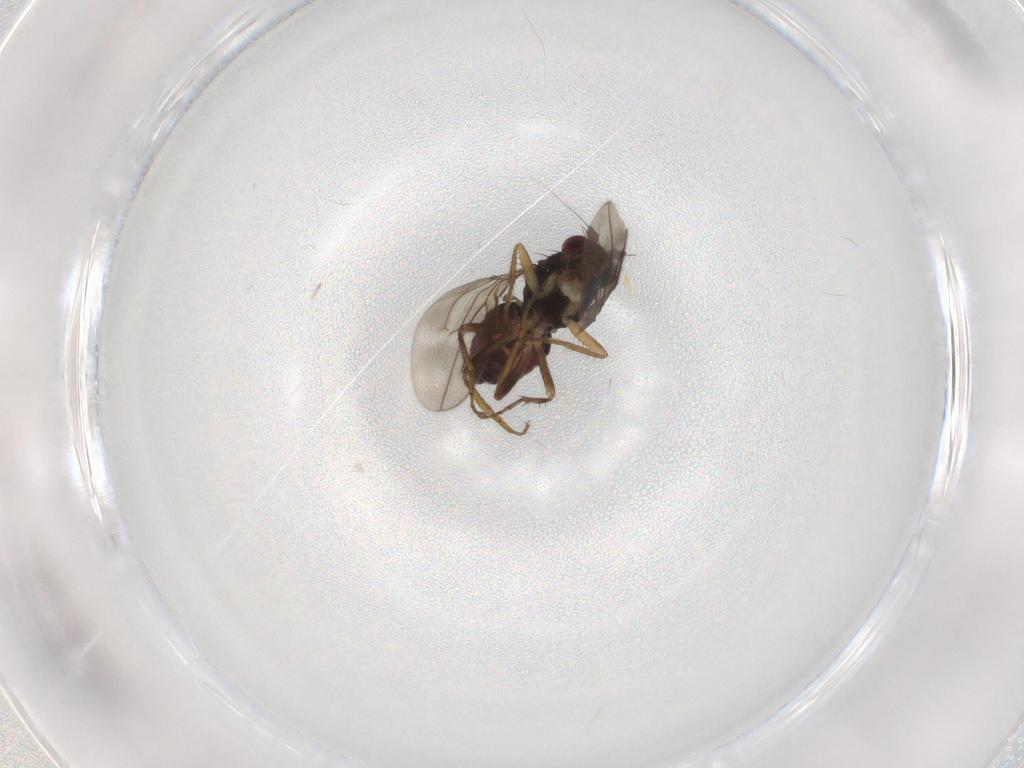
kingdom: Animalia
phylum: Arthropoda
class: Insecta
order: Diptera
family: Sphaeroceridae
